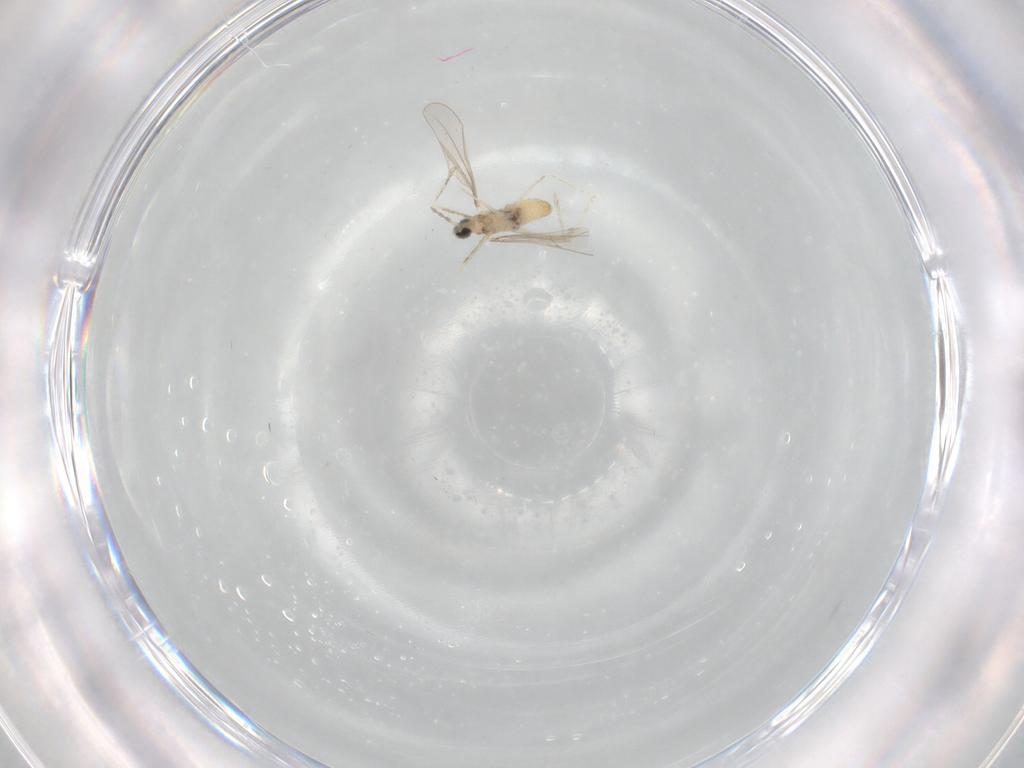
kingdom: Animalia
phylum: Arthropoda
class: Insecta
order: Diptera
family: Cecidomyiidae
